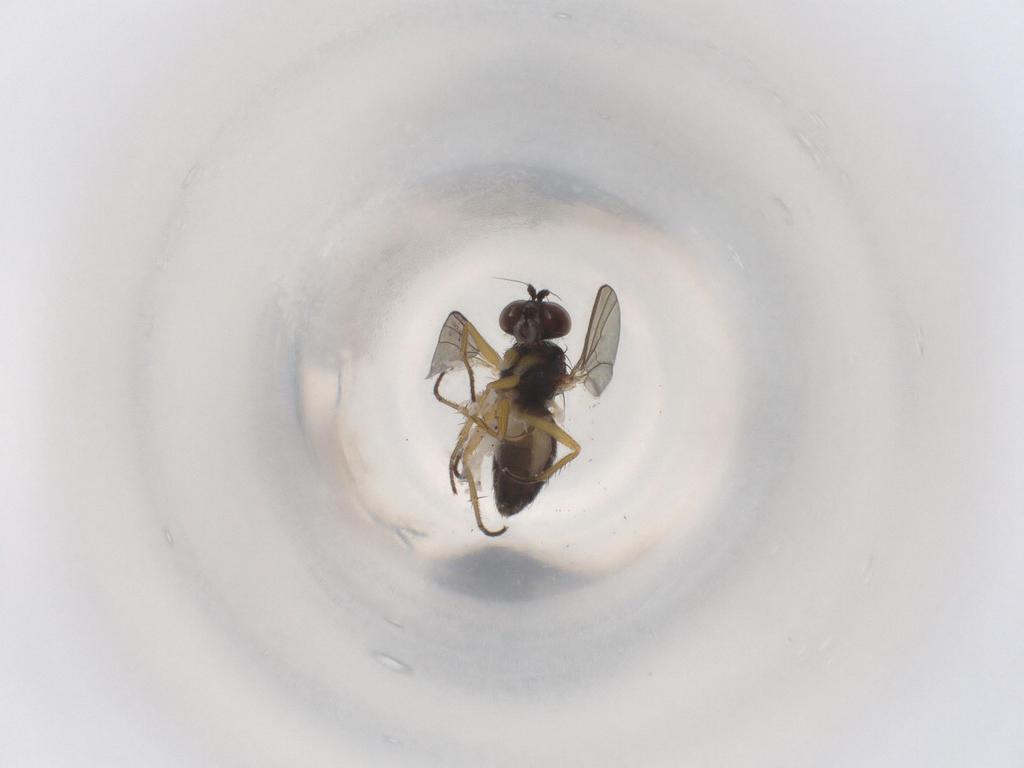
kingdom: Animalia
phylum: Arthropoda
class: Insecta
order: Diptera
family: Dolichopodidae
